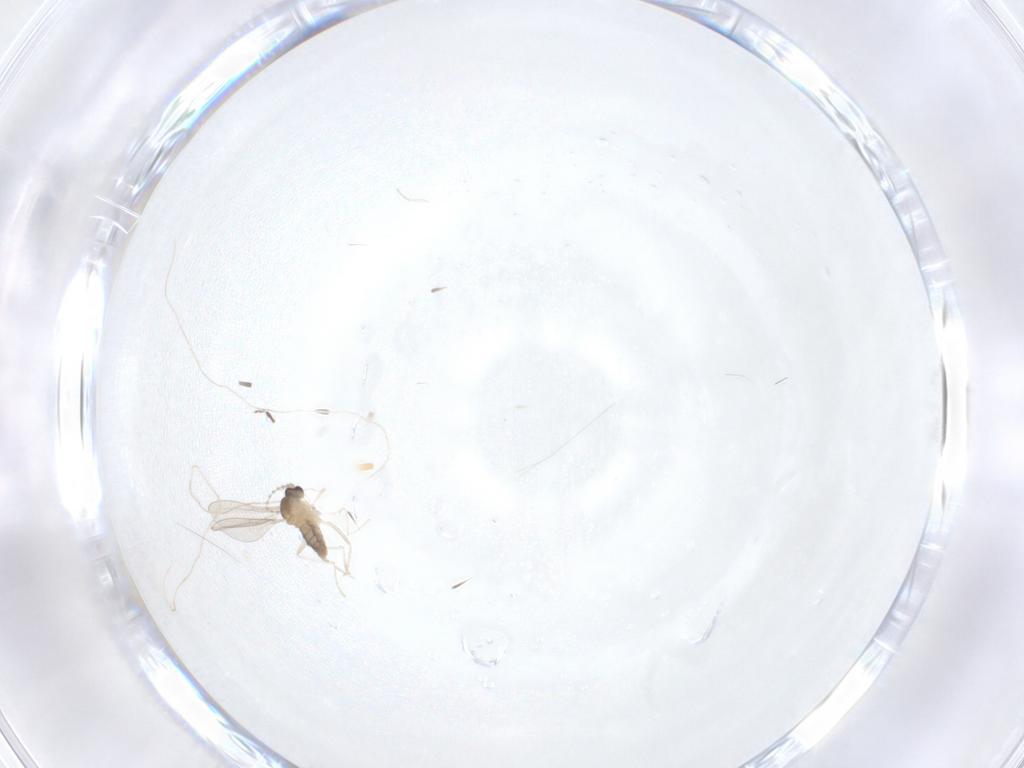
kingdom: Animalia
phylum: Arthropoda
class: Insecta
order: Diptera
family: Cecidomyiidae
